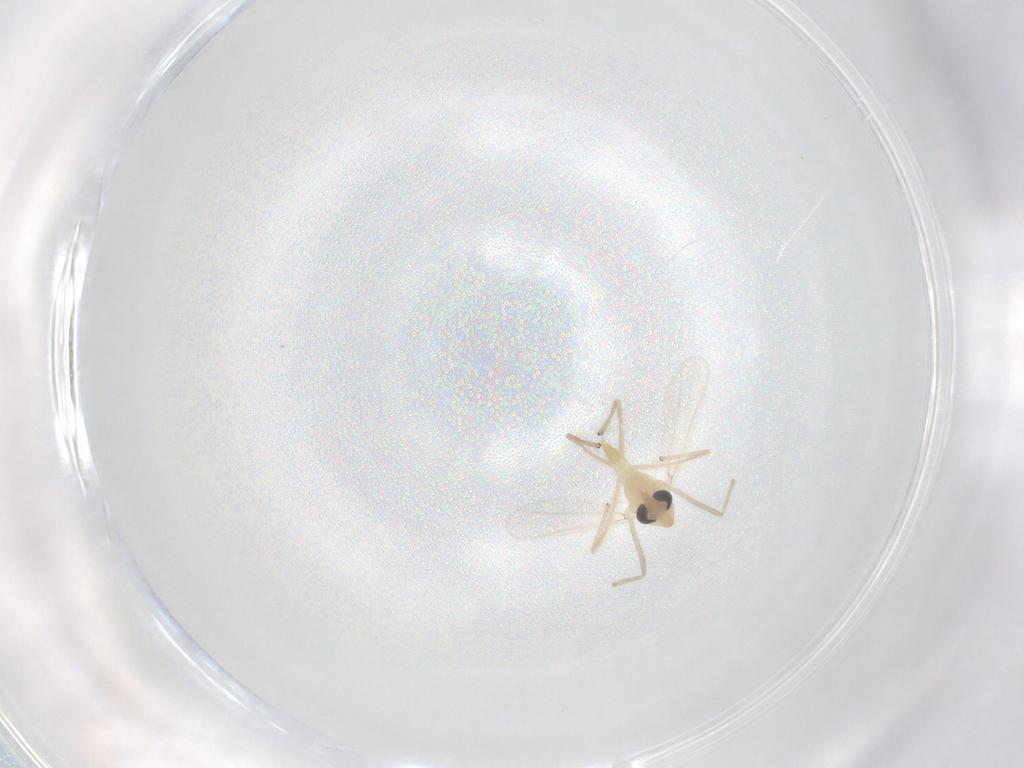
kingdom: Animalia
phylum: Arthropoda
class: Insecta
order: Diptera
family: Chironomidae
